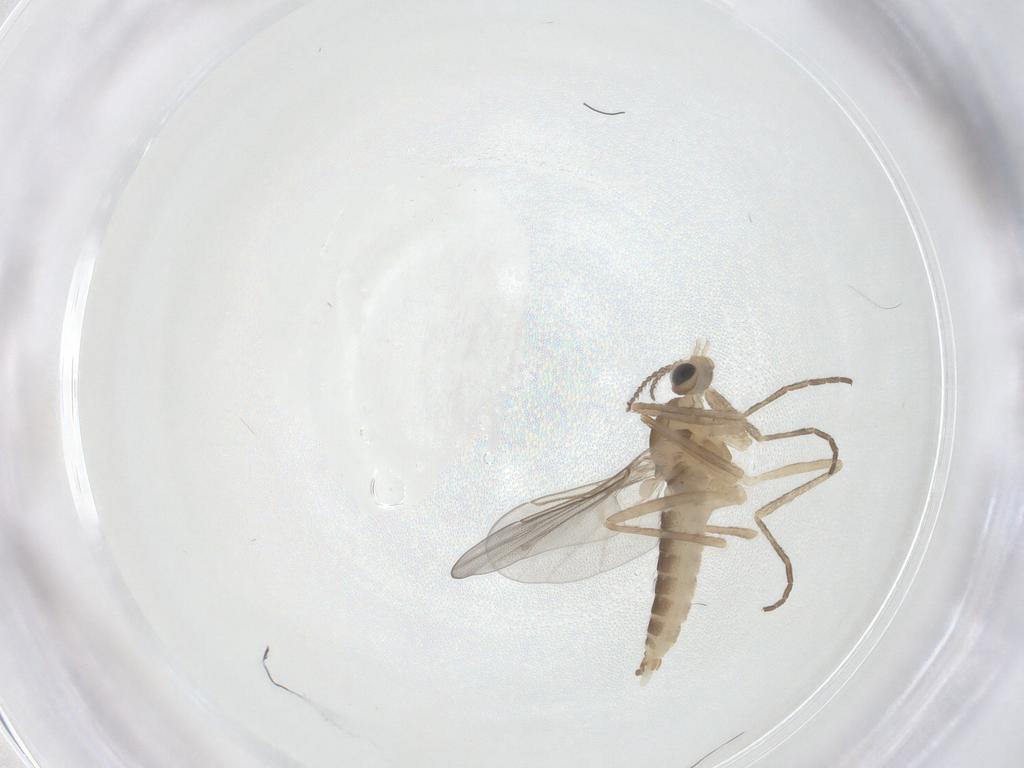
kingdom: Animalia
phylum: Arthropoda
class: Insecta
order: Diptera
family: Cecidomyiidae
